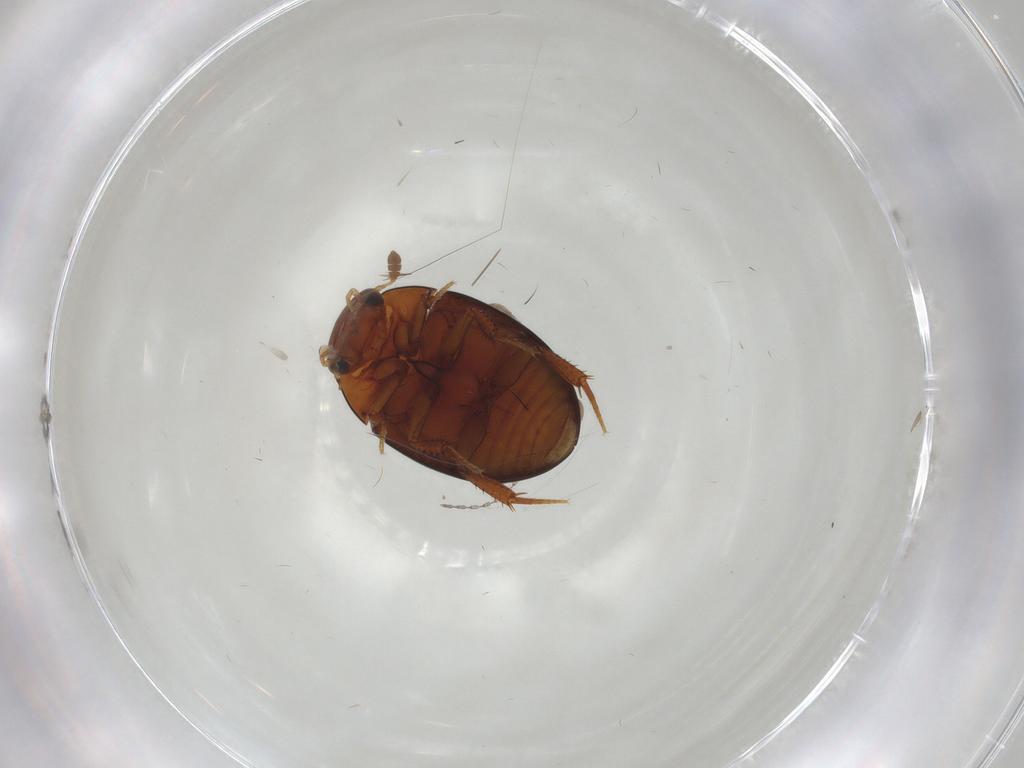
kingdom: Animalia
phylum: Arthropoda
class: Insecta
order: Coleoptera
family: Hydrophilidae
